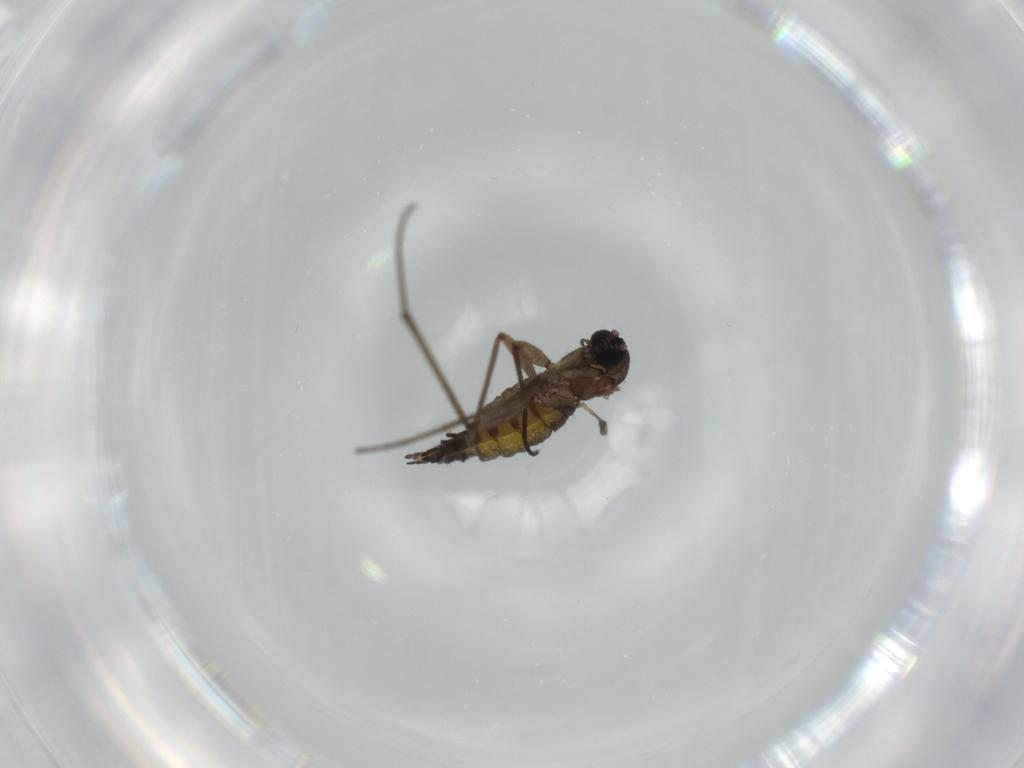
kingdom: Animalia
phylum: Arthropoda
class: Insecta
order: Diptera
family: Sciaridae
